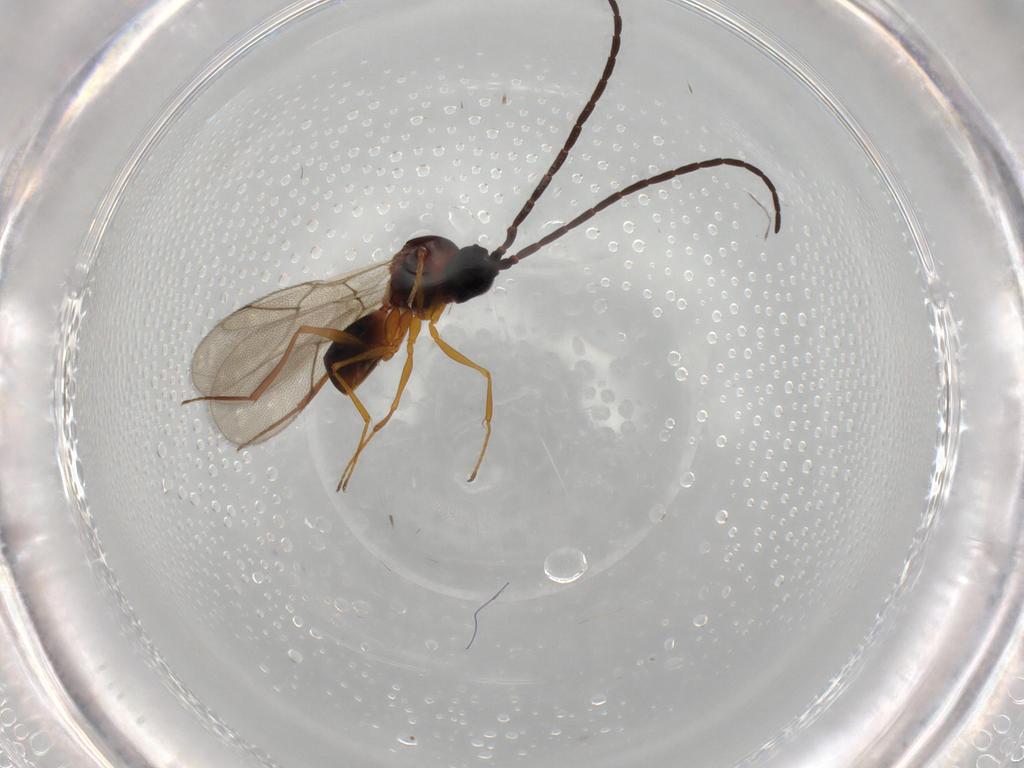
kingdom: Animalia
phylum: Arthropoda
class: Insecta
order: Hymenoptera
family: Figitidae
